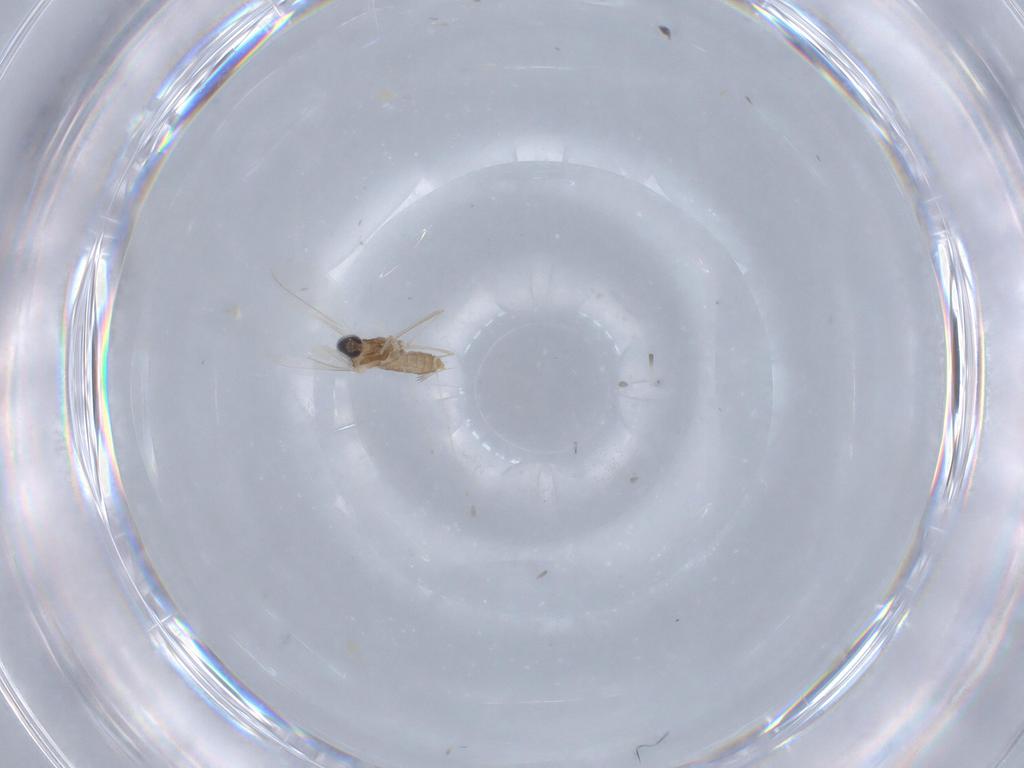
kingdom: Animalia
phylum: Arthropoda
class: Insecta
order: Diptera
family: Cecidomyiidae
